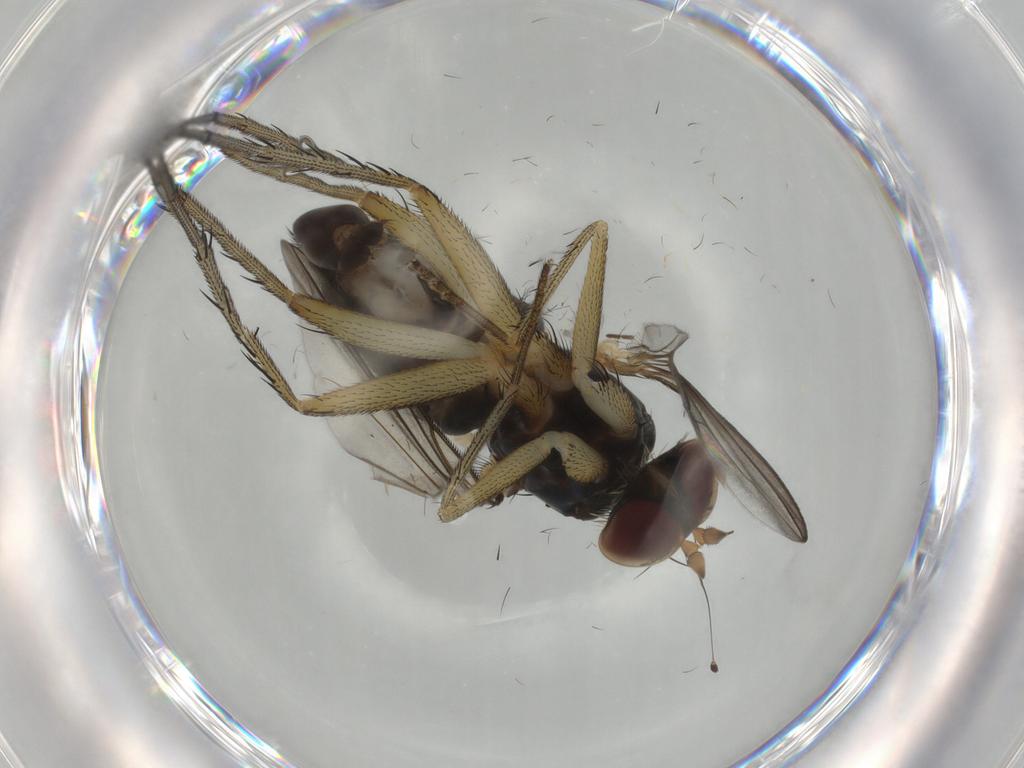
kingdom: Animalia
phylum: Arthropoda
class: Insecta
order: Diptera
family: Dolichopodidae
